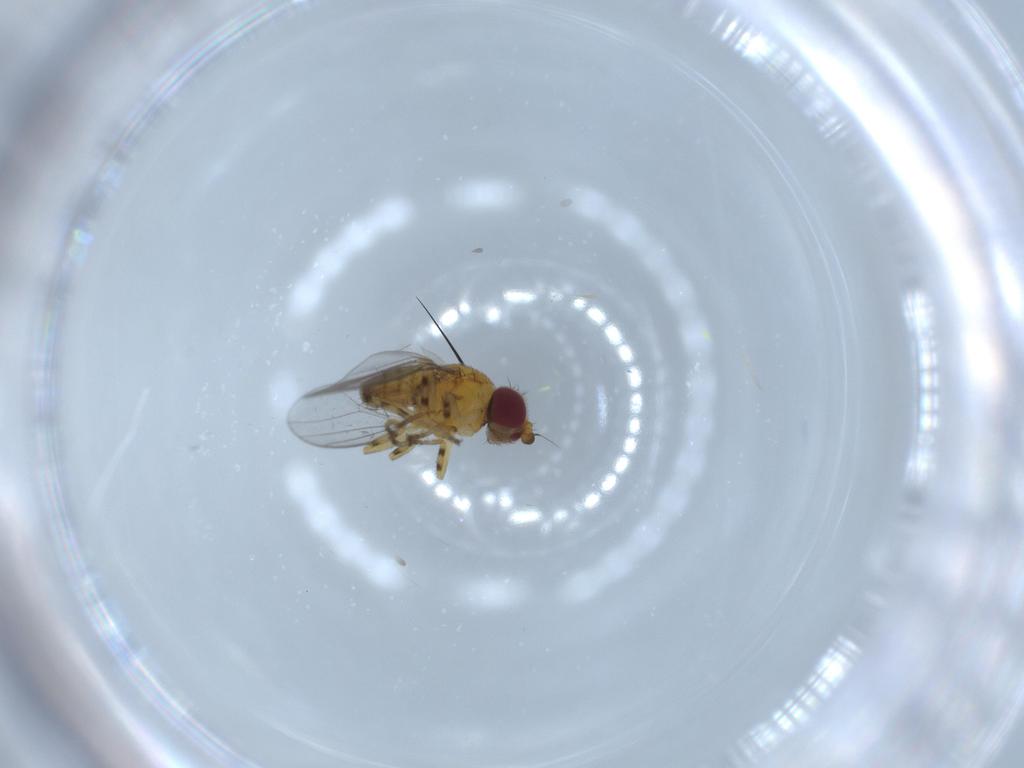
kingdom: Animalia
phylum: Arthropoda
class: Insecta
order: Diptera
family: Chloropidae
